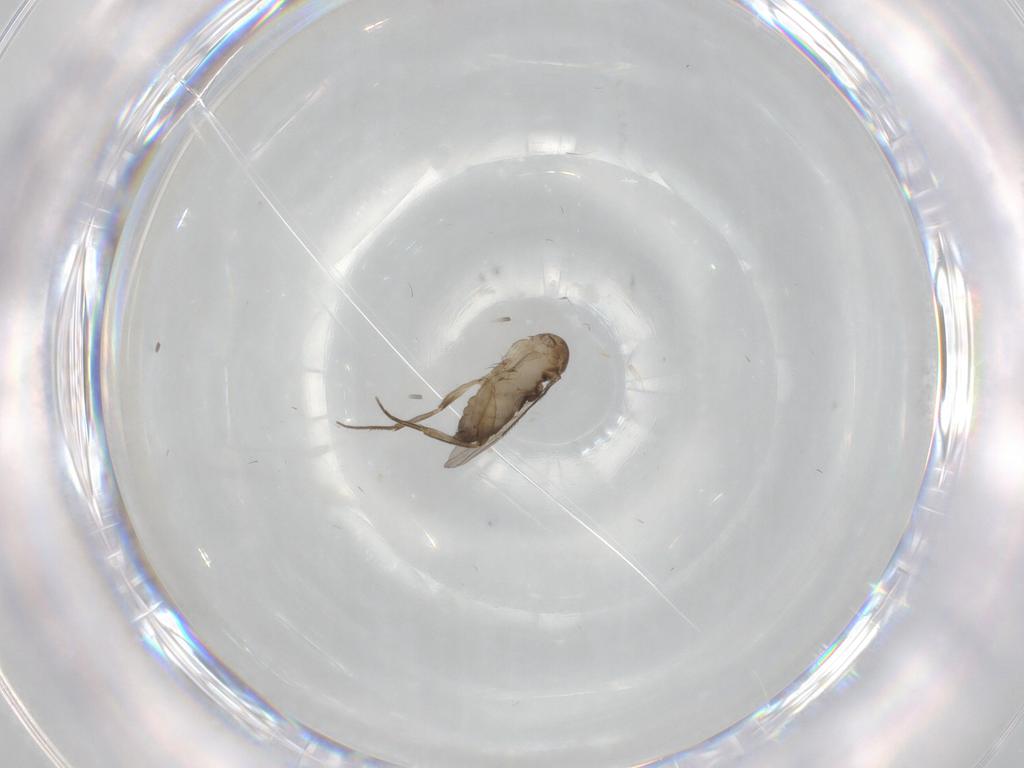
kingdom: Animalia
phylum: Arthropoda
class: Insecta
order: Diptera
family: Phoridae
